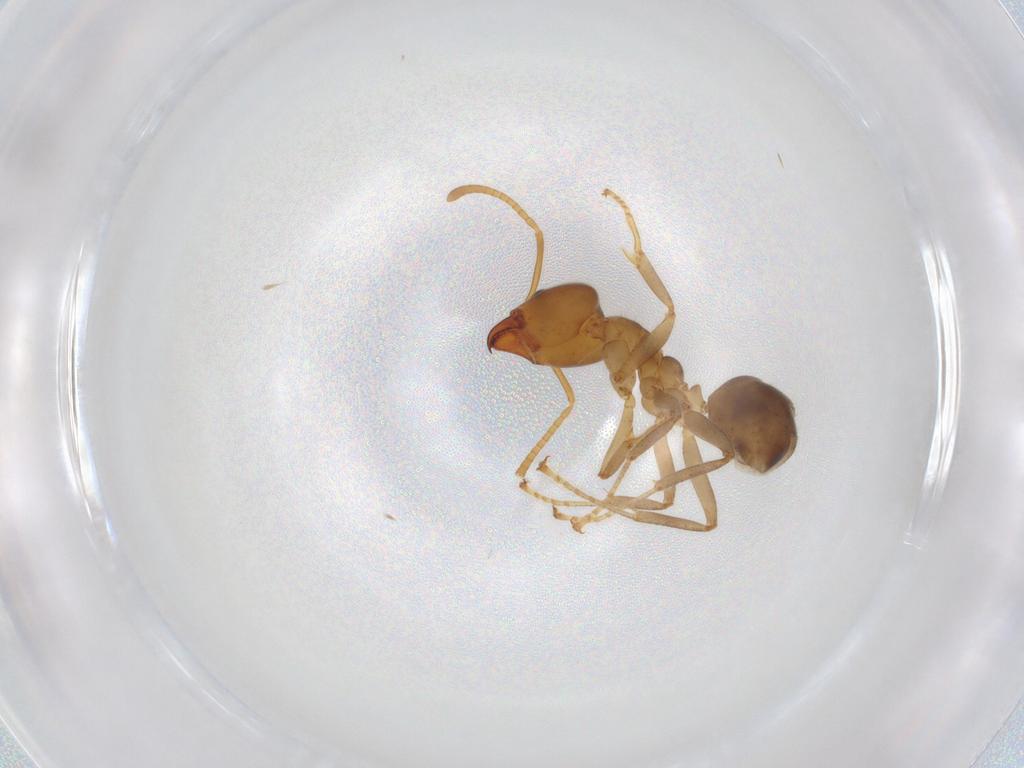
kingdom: Animalia
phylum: Arthropoda
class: Insecta
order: Hymenoptera
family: Formicidae
